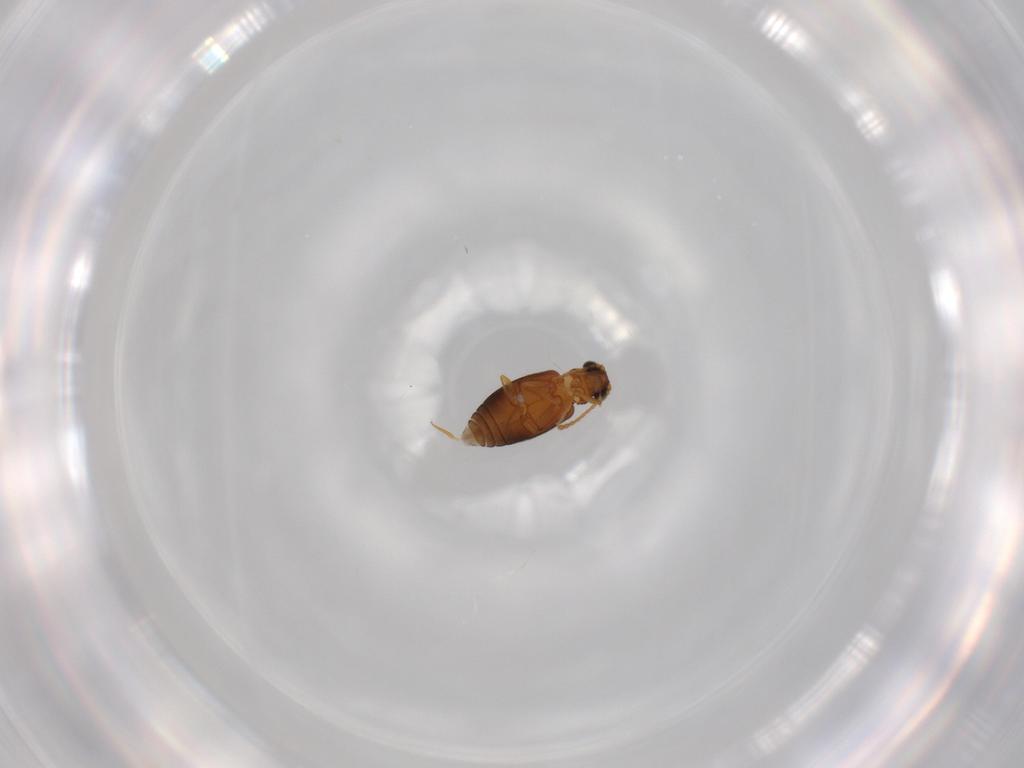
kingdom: Animalia
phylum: Arthropoda
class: Insecta
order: Coleoptera
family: Aderidae
